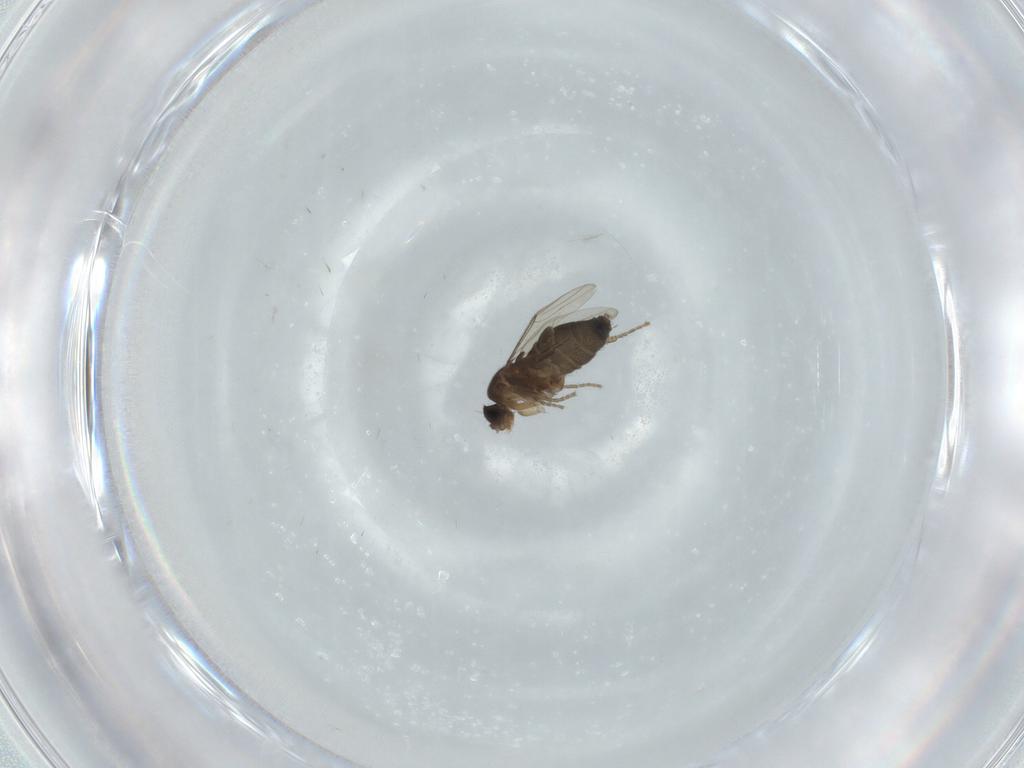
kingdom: Animalia
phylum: Arthropoda
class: Insecta
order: Diptera
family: Phoridae
